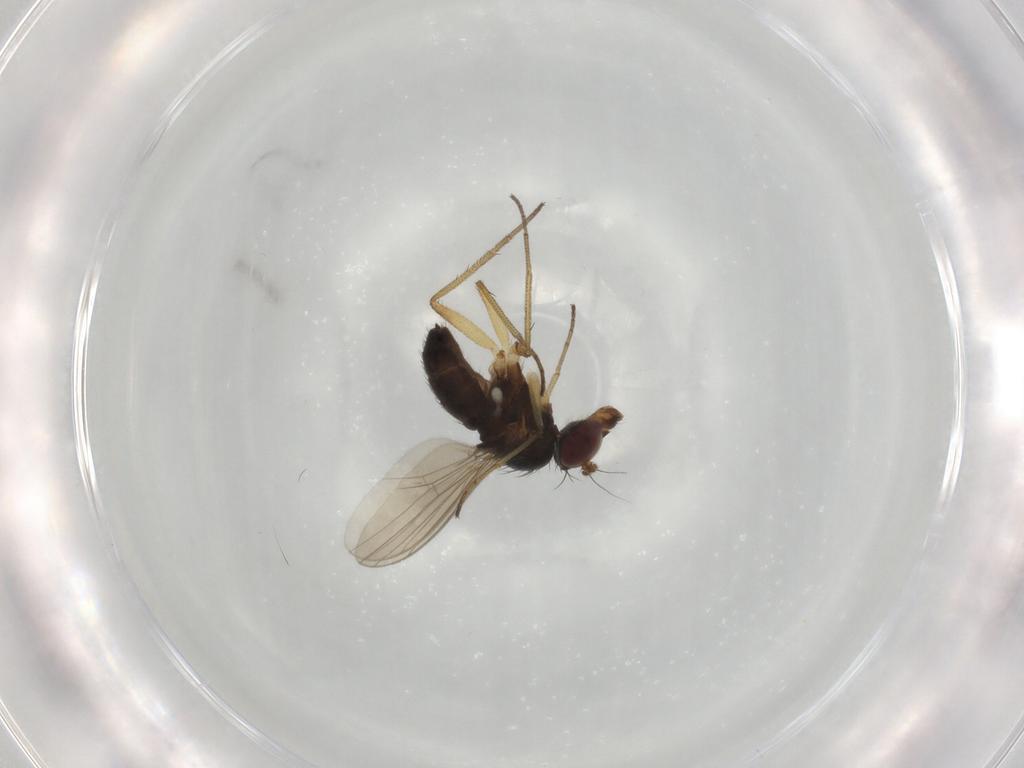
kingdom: Animalia
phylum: Arthropoda
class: Insecta
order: Diptera
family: Dolichopodidae
